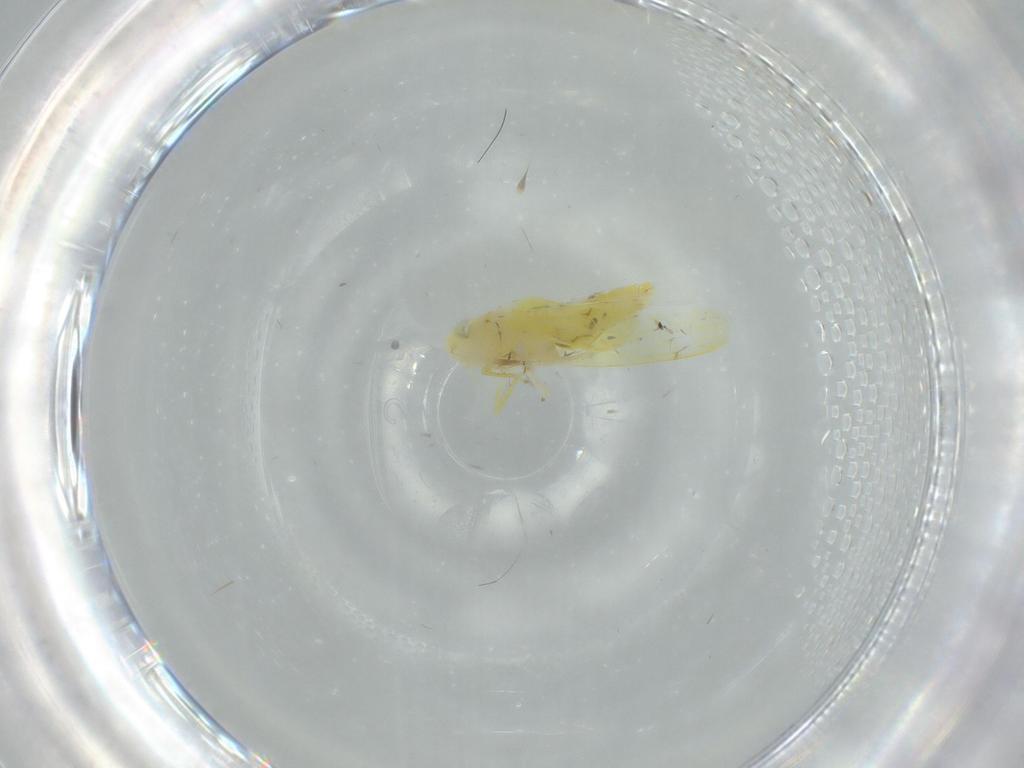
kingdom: Animalia
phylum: Arthropoda
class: Insecta
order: Hemiptera
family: Cicadellidae
